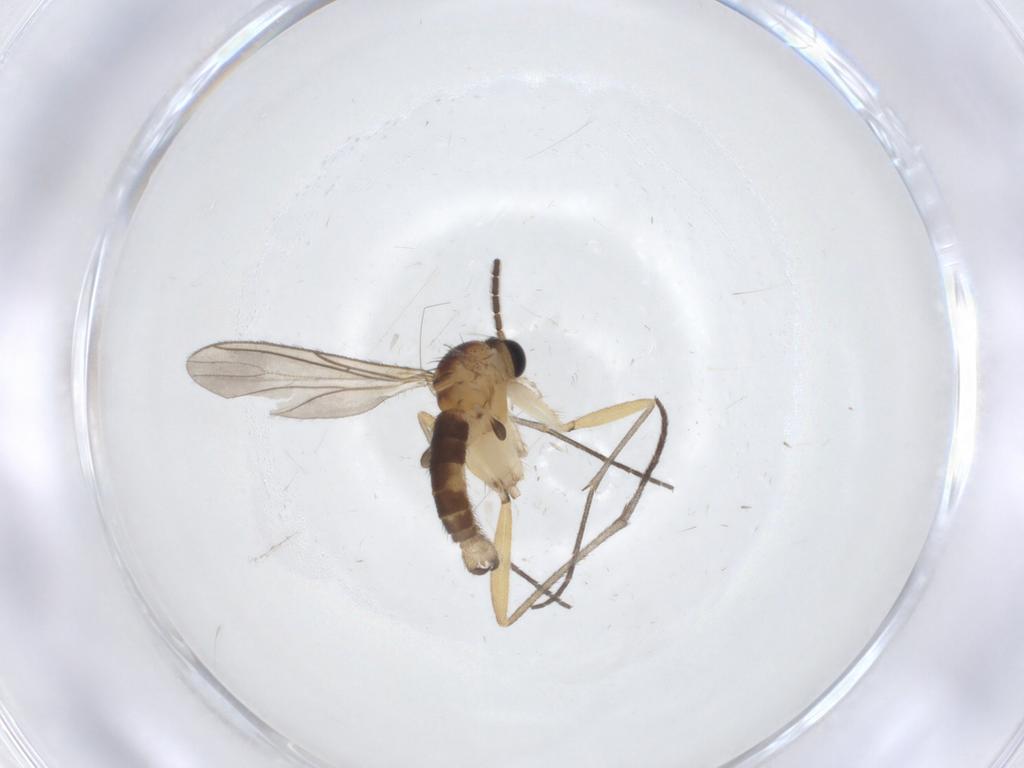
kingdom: Animalia
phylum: Arthropoda
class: Insecta
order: Diptera
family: Sciaridae
